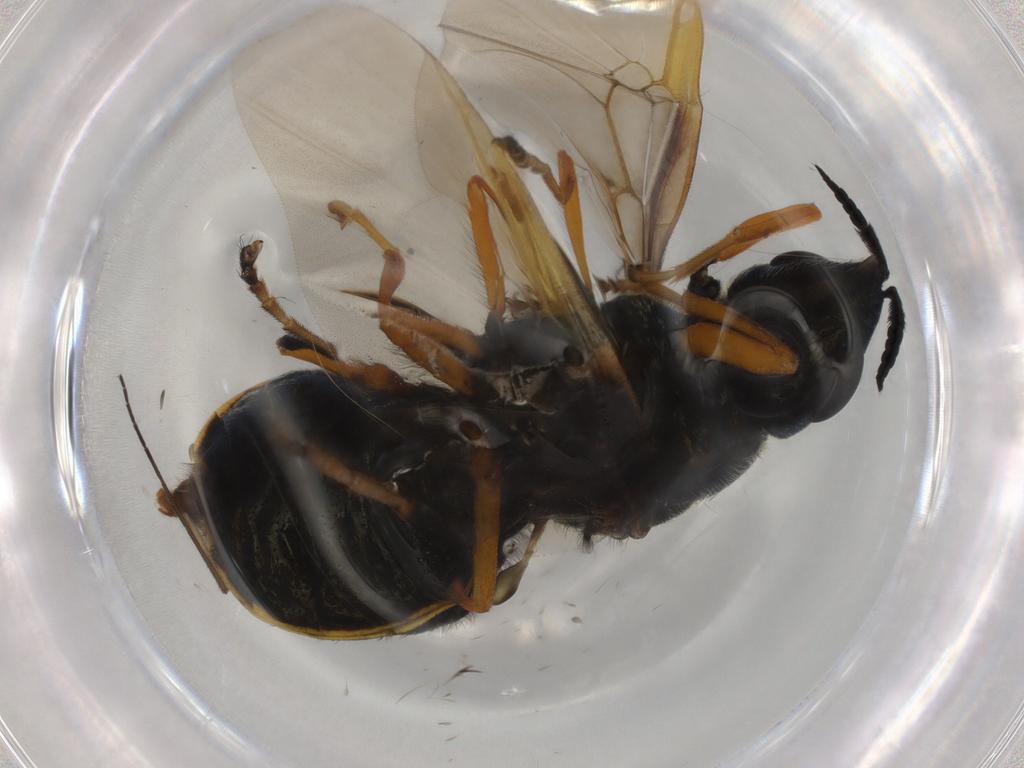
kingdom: Animalia
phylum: Arthropoda
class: Insecta
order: Diptera
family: Stratiomyidae
